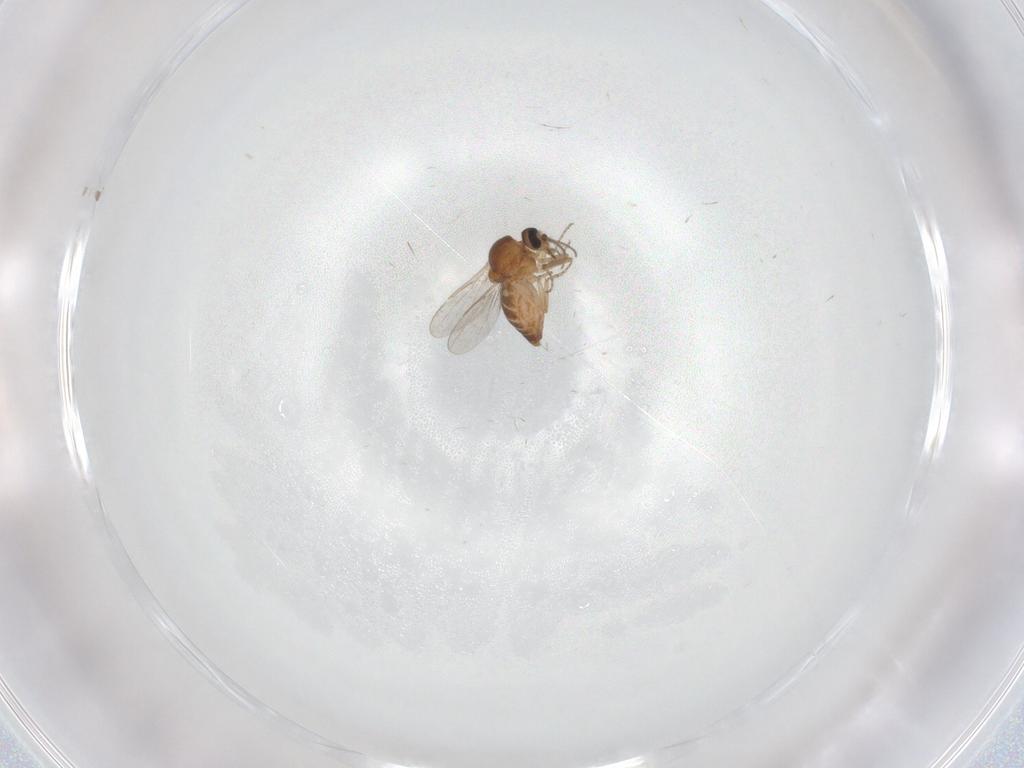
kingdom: Animalia
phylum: Arthropoda
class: Insecta
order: Diptera
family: Ceratopogonidae
